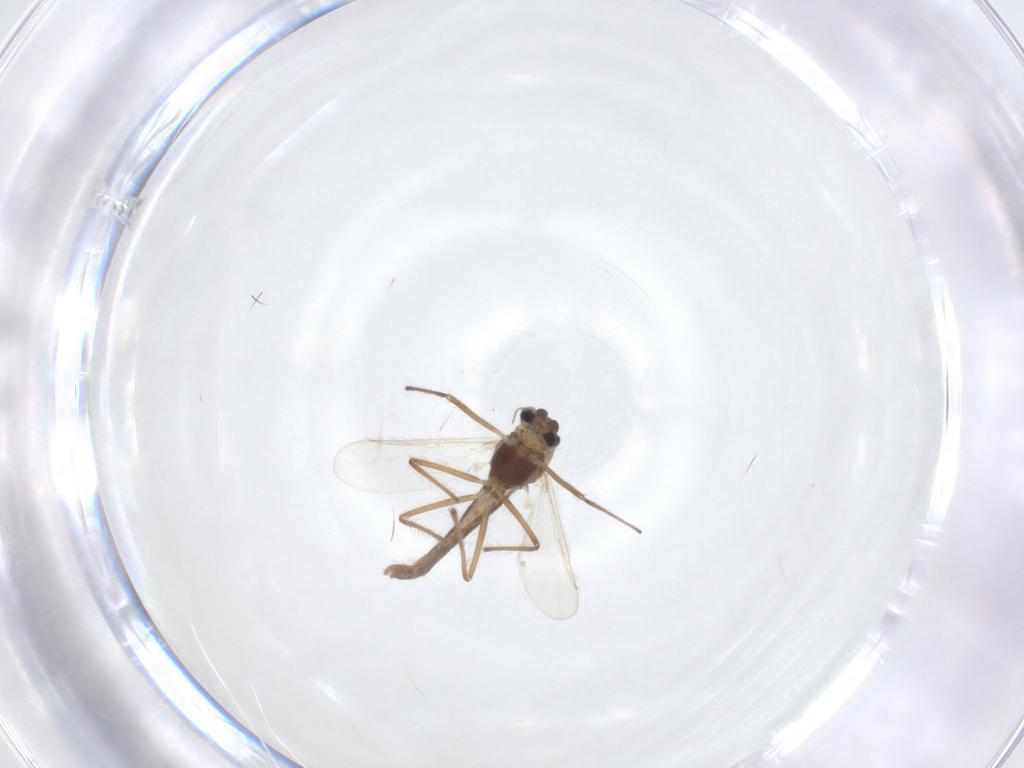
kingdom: Animalia
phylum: Arthropoda
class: Insecta
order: Diptera
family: Chironomidae
